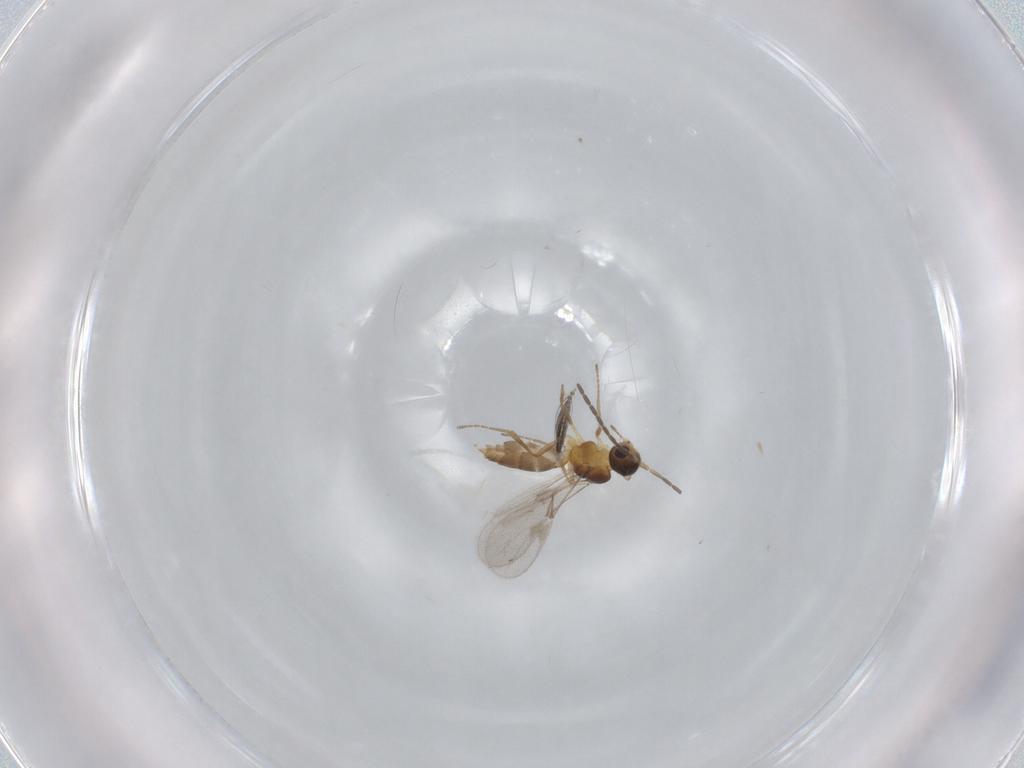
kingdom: Animalia
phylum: Arthropoda
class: Insecta
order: Hymenoptera
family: Braconidae
